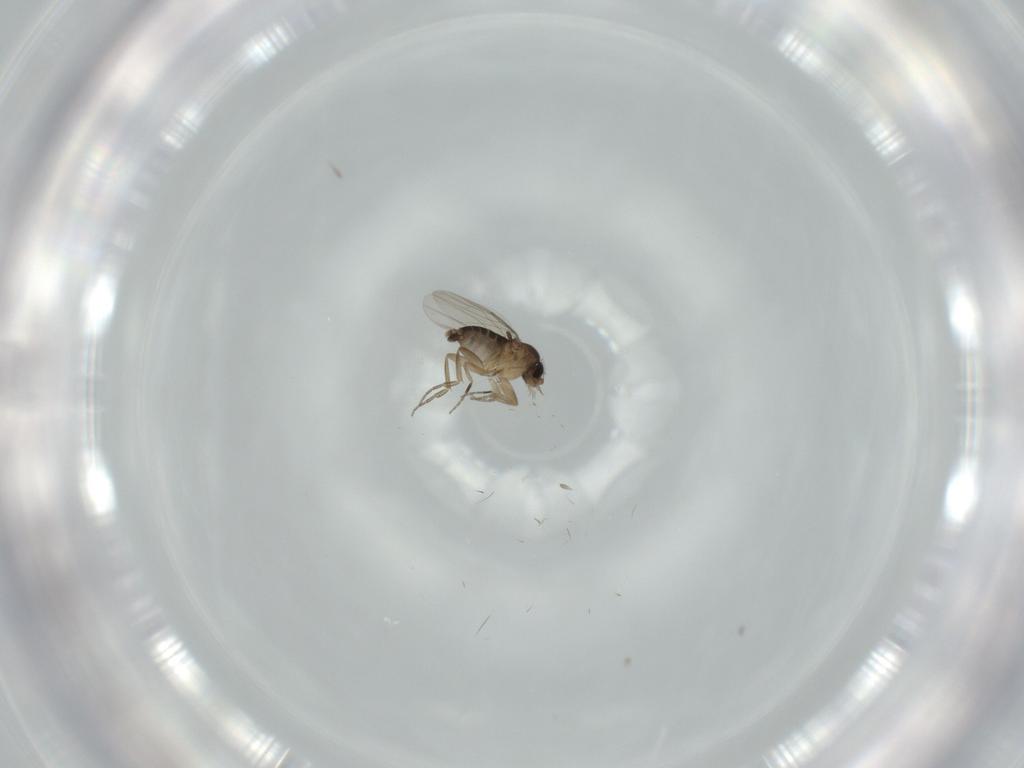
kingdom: Animalia
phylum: Arthropoda
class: Insecta
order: Diptera
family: Phoridae
